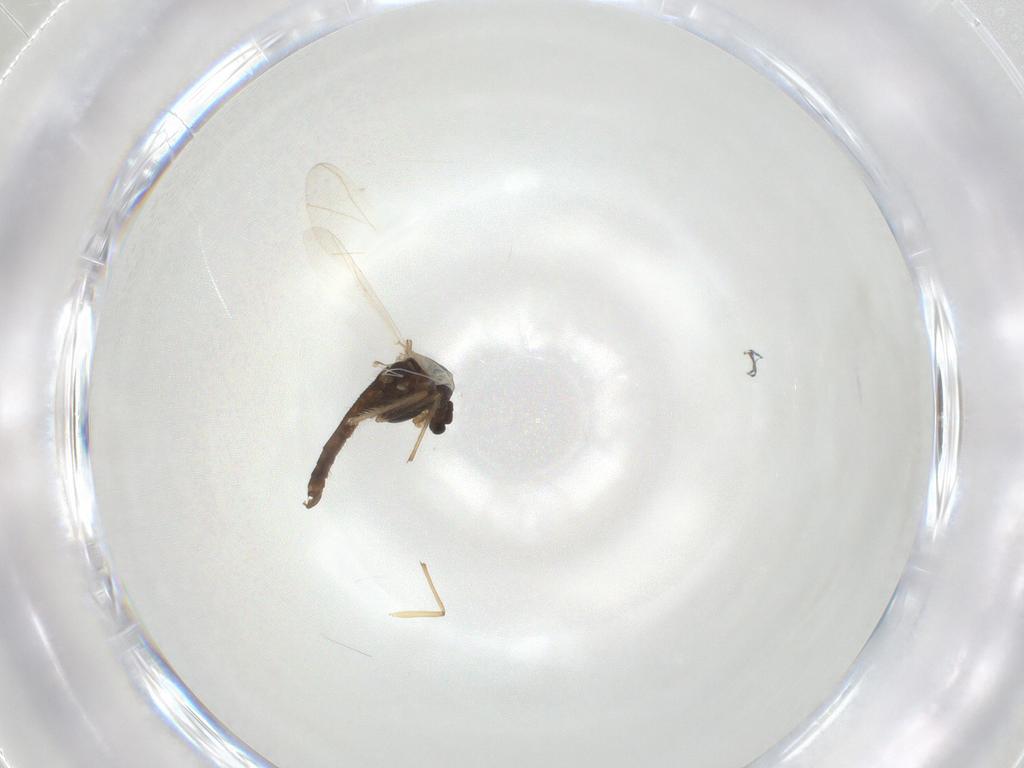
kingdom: Animalia
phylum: Arthropoda
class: Insecta
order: Diptera
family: Chironomidae
